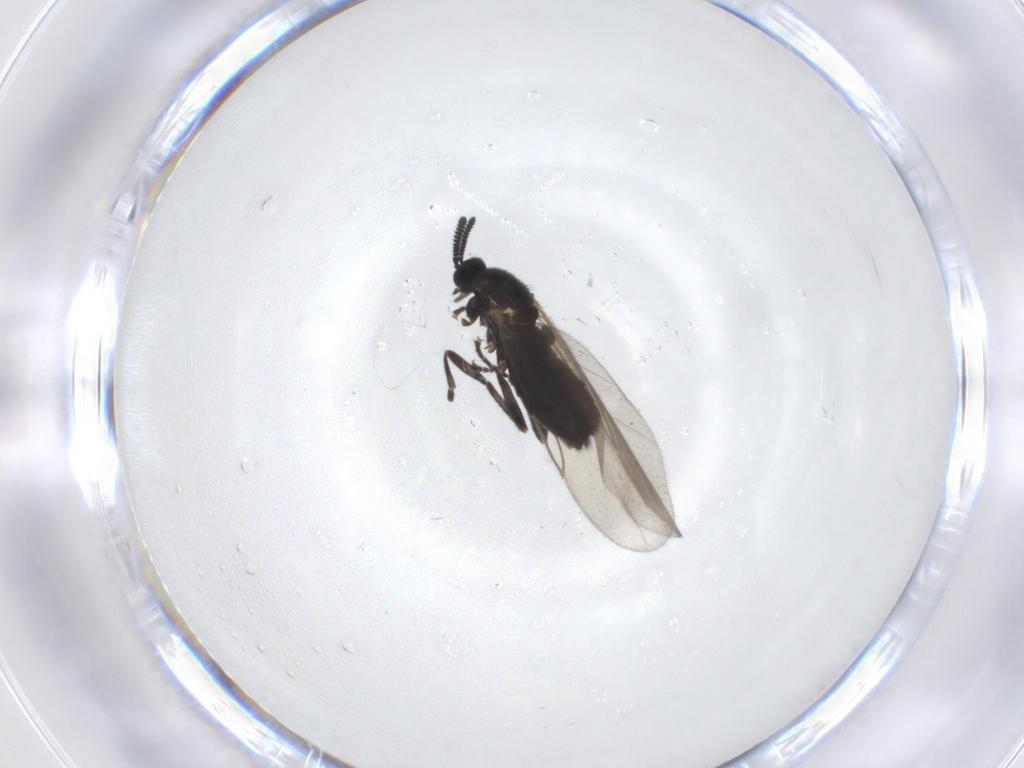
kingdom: Animalia
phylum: Arthropoda
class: Insecta
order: Diptera
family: Scatopsidae
